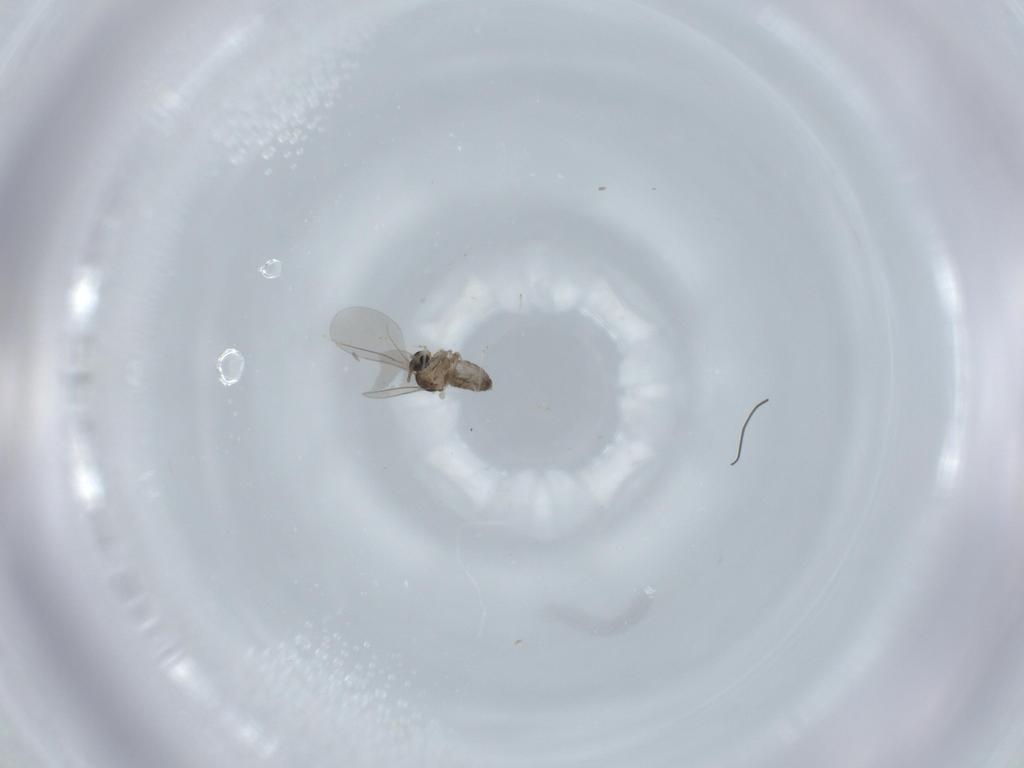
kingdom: Animalia
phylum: Arthropoda
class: Insecta
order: Diptera
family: Cecidomyiidae
